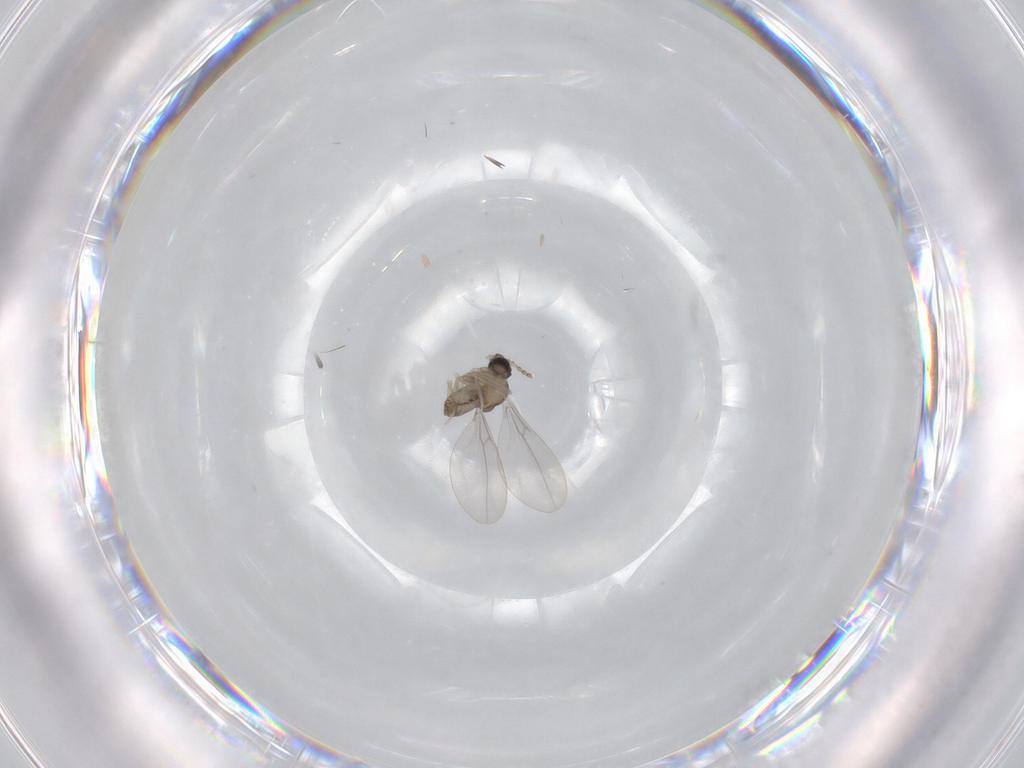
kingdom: Animalia
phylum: Arthropoda
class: Insecta
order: Diptera
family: Cecidomyiidae
